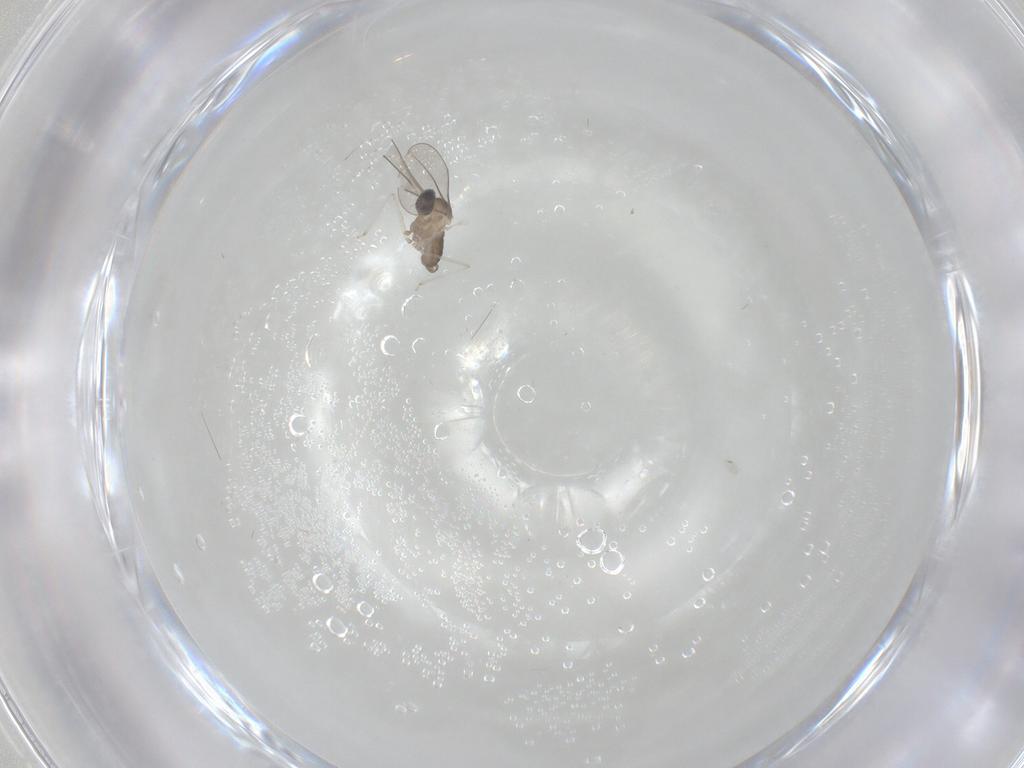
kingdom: Animalia
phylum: Arthropoda
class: Insecta
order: Diptera
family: Cecidomyiidae
